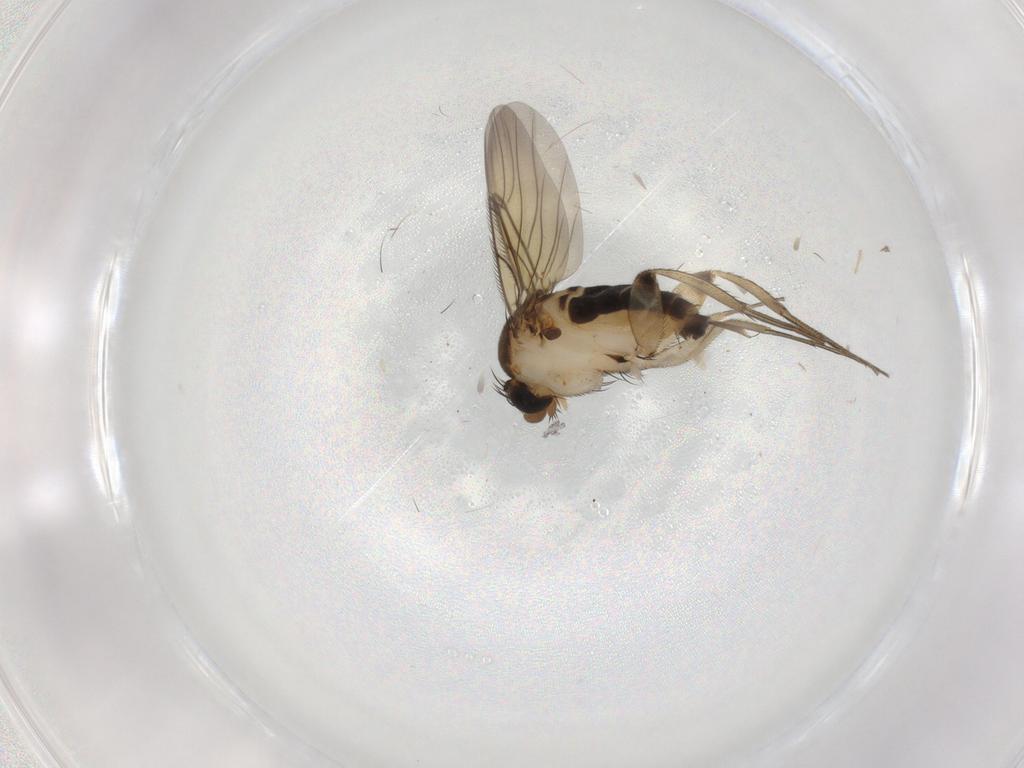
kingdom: Animalia
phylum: Arthropoda
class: Insecta
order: Diptera
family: Phoridae
